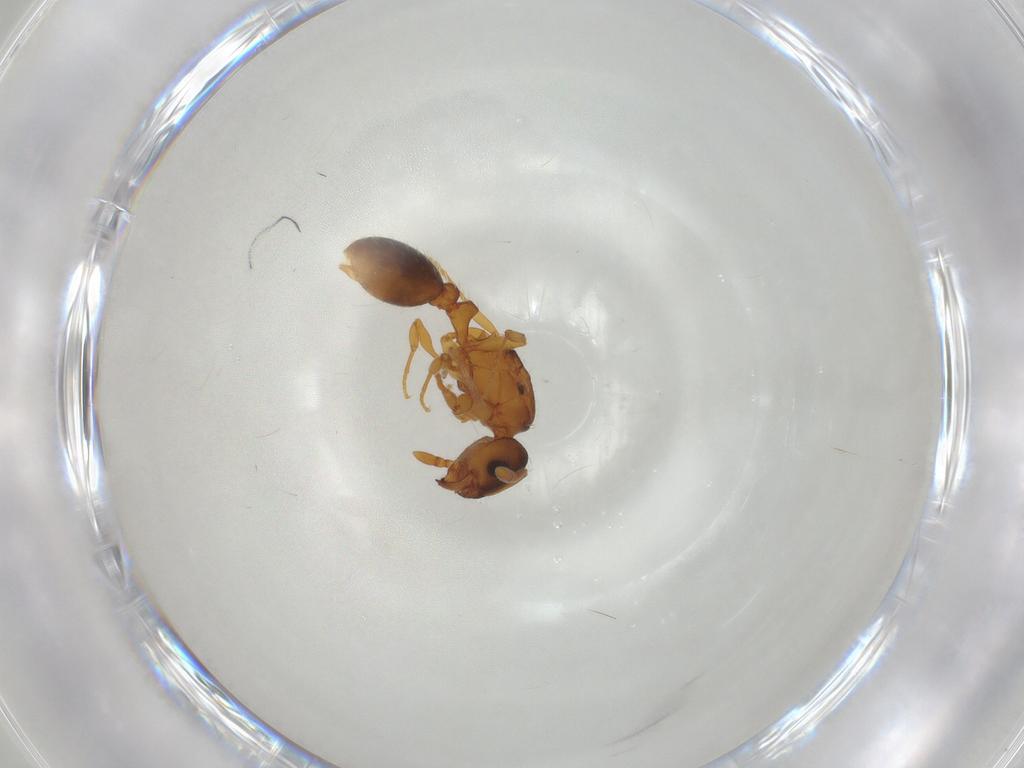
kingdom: Animalia
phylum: Arthropoda
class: Insecta
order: Hymenoptera
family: Formicidae
